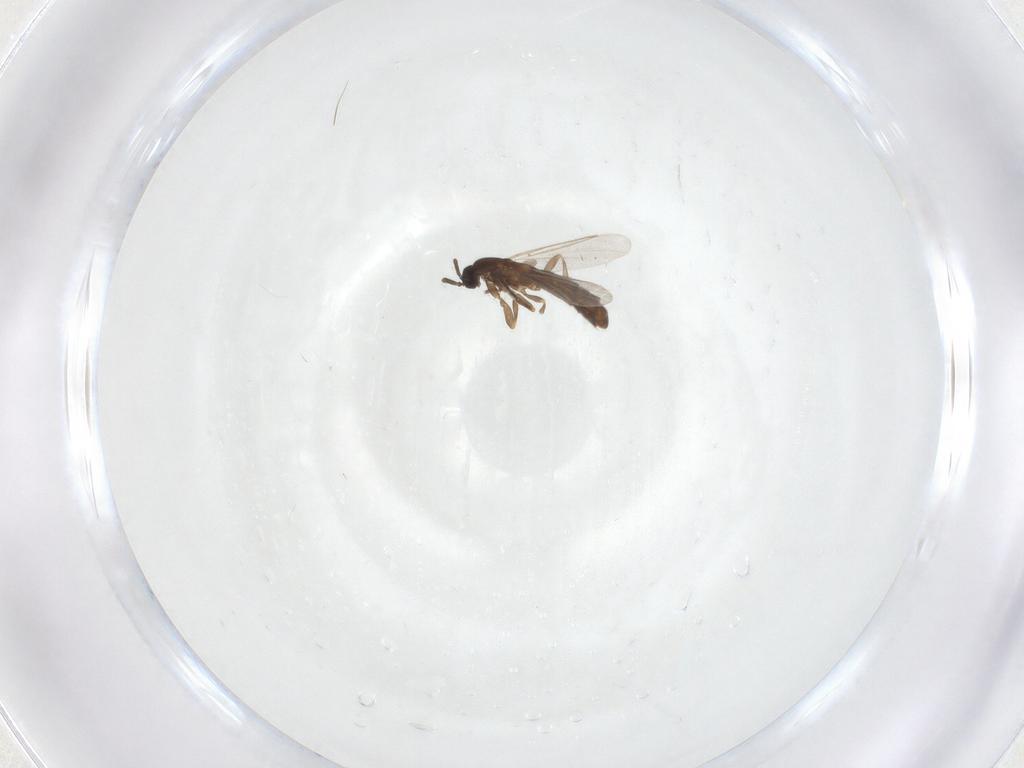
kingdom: Animalia
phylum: Arthropoda
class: Insecta
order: Diptera
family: Scatopsidae
